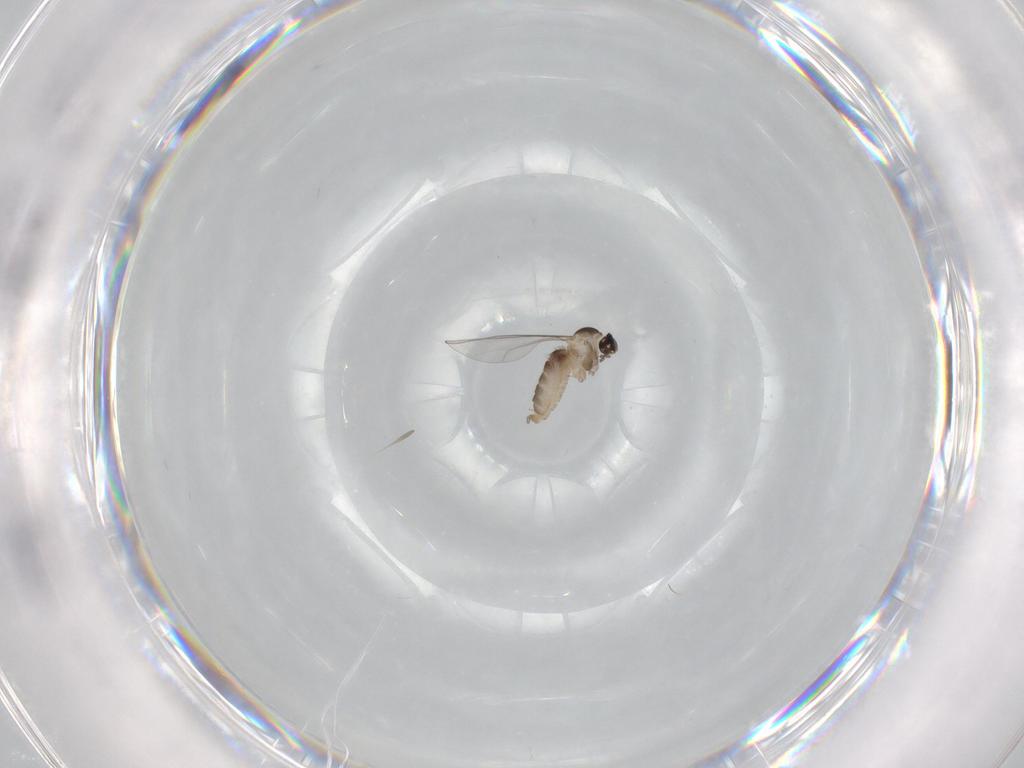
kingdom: Animalia
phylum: Arthropoda
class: Insecta
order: Diptera
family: Cecidomyiidae
